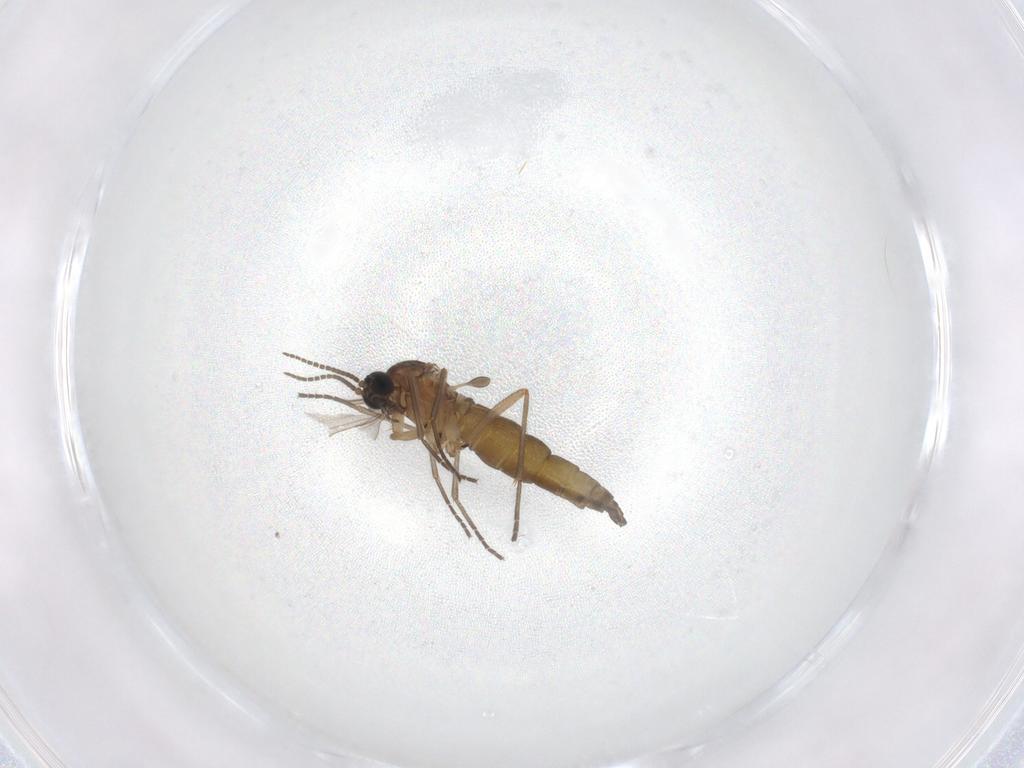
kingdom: Animalia
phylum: Arthropoda
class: Insecta
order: Diptera
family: Sciaridae
